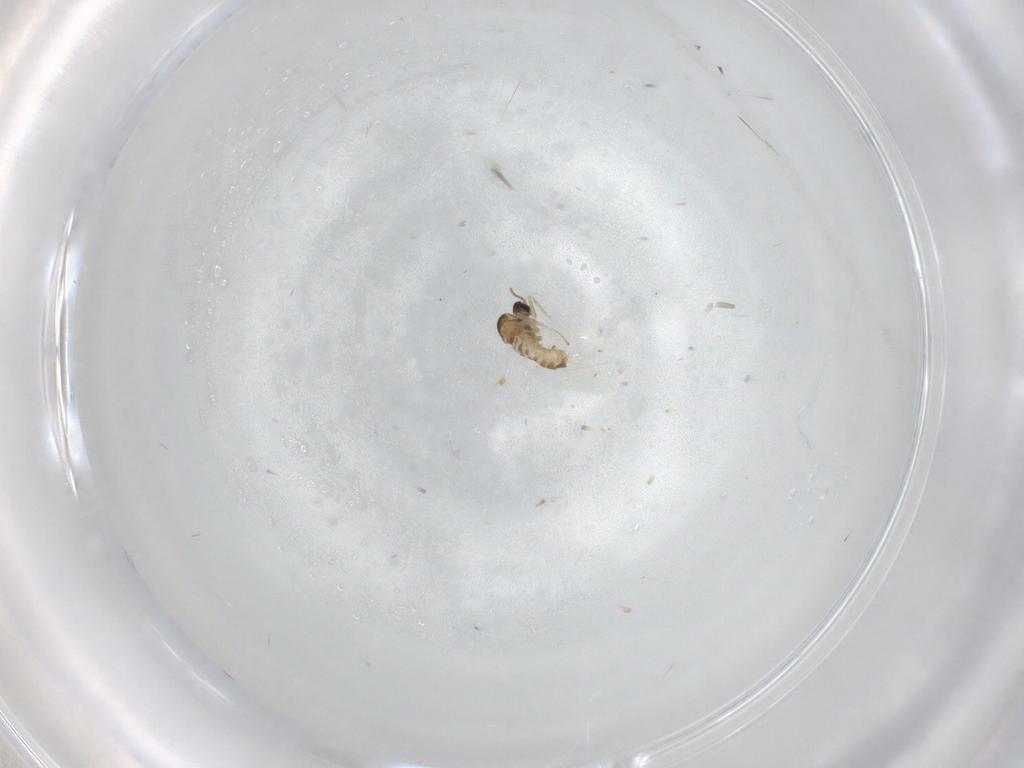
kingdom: Animalia
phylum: Arthropoda
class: Insecta
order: Diptera
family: Cecidomyiidae
